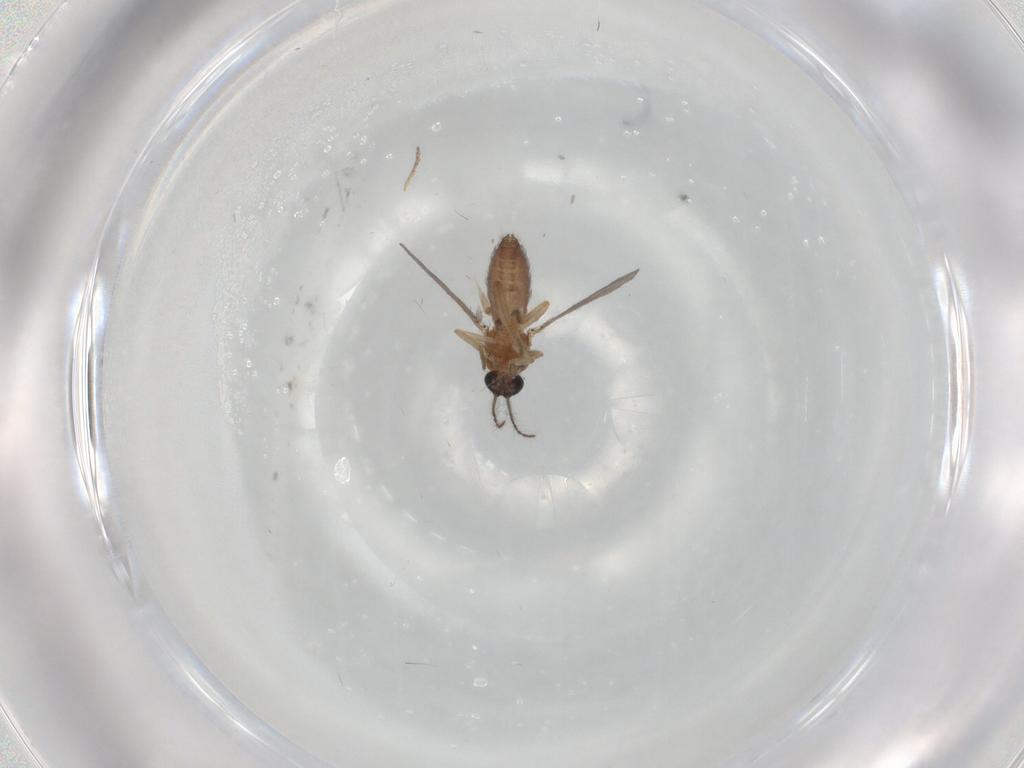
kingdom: Animalia
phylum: Arthropoda
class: Insecta
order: Diptera
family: Ceratopogonidae
